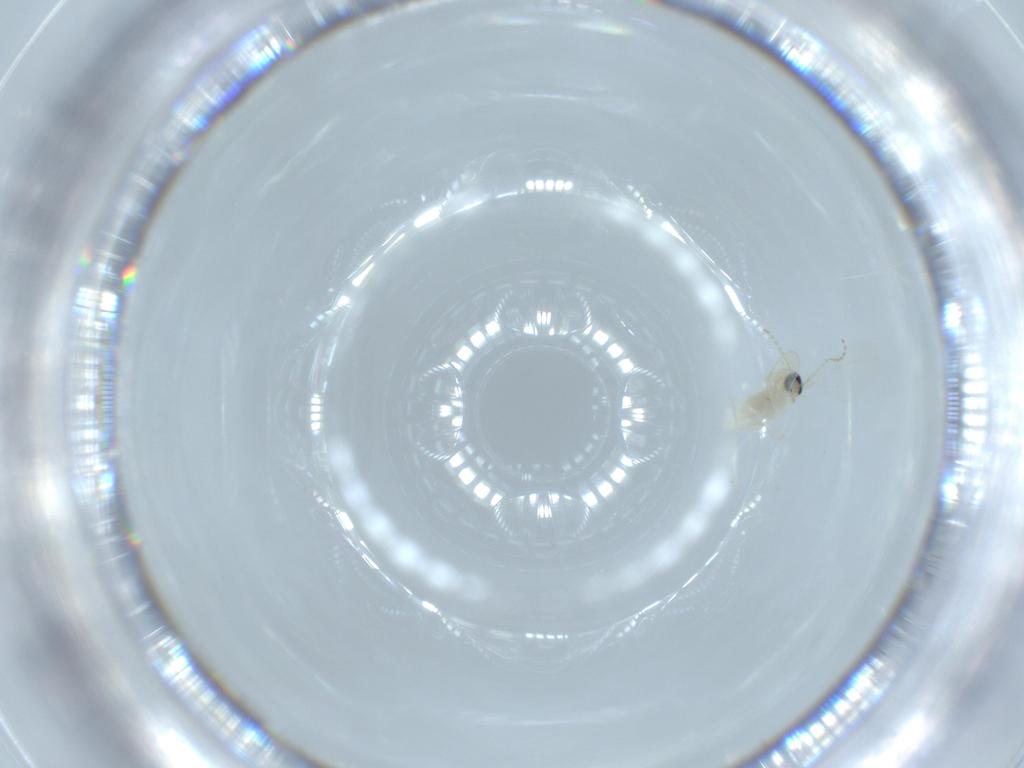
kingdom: Animalia
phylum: Arthropoda
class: Insecta
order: Diptera
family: Cecidomyiidae
